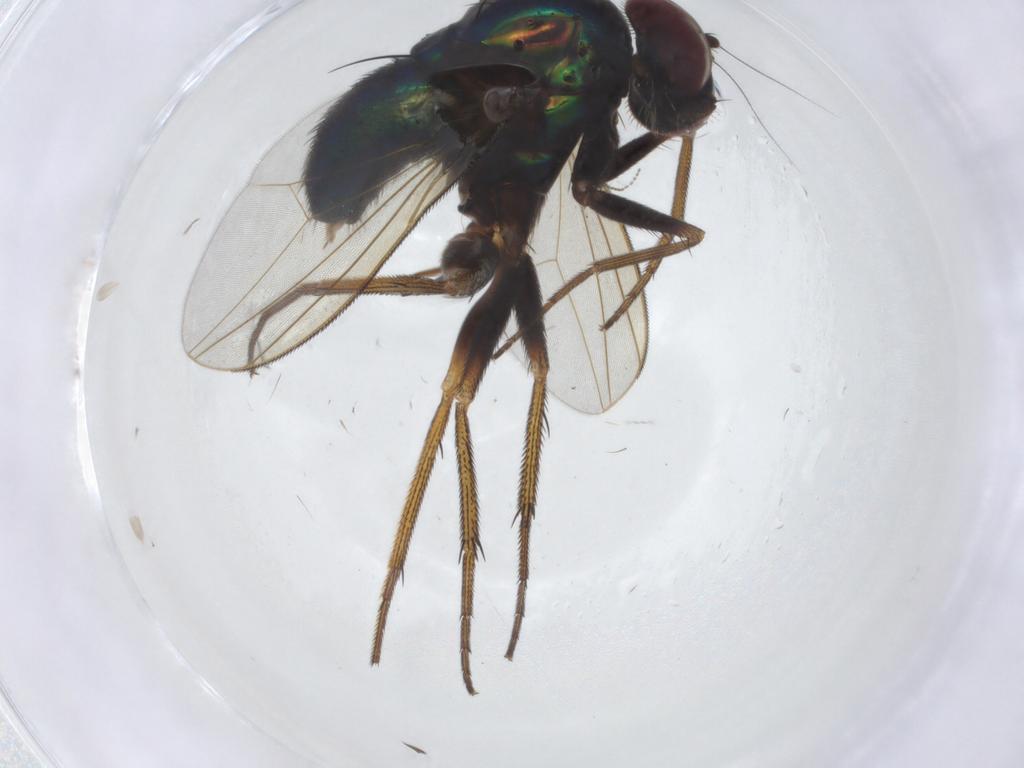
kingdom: Animalia
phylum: Arthropoda
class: Insecta
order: Diptera
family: Dolichopodidae
